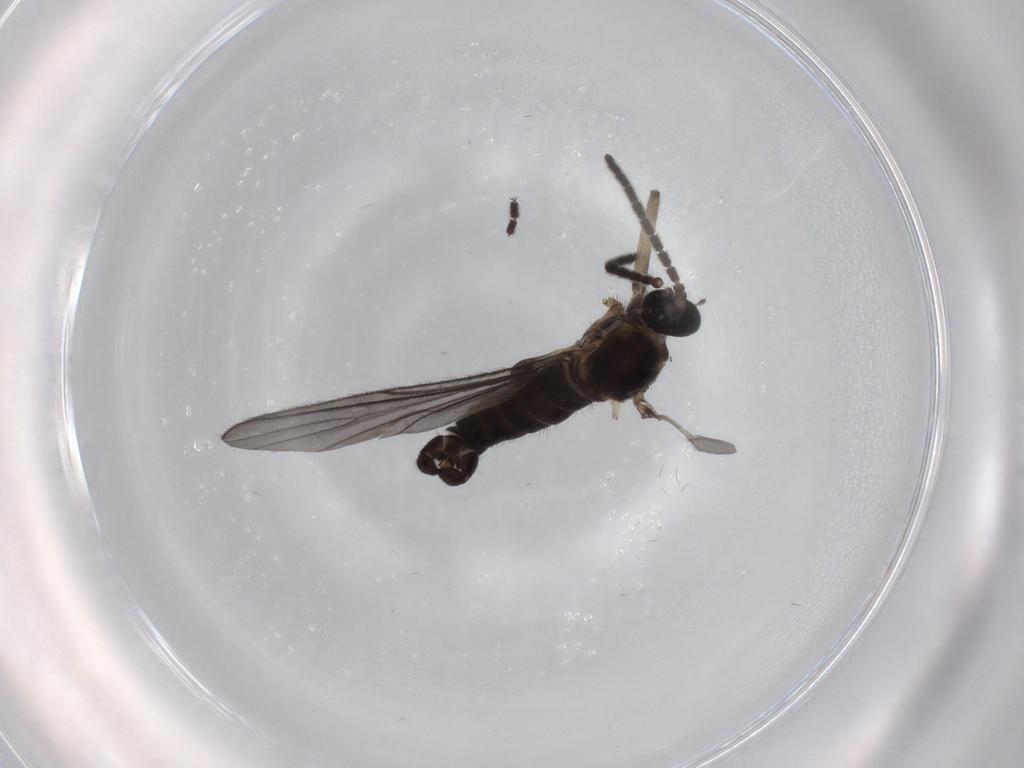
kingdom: Animalia
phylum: Arthropoda
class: Insecta
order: Diptera
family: Sciaridae
